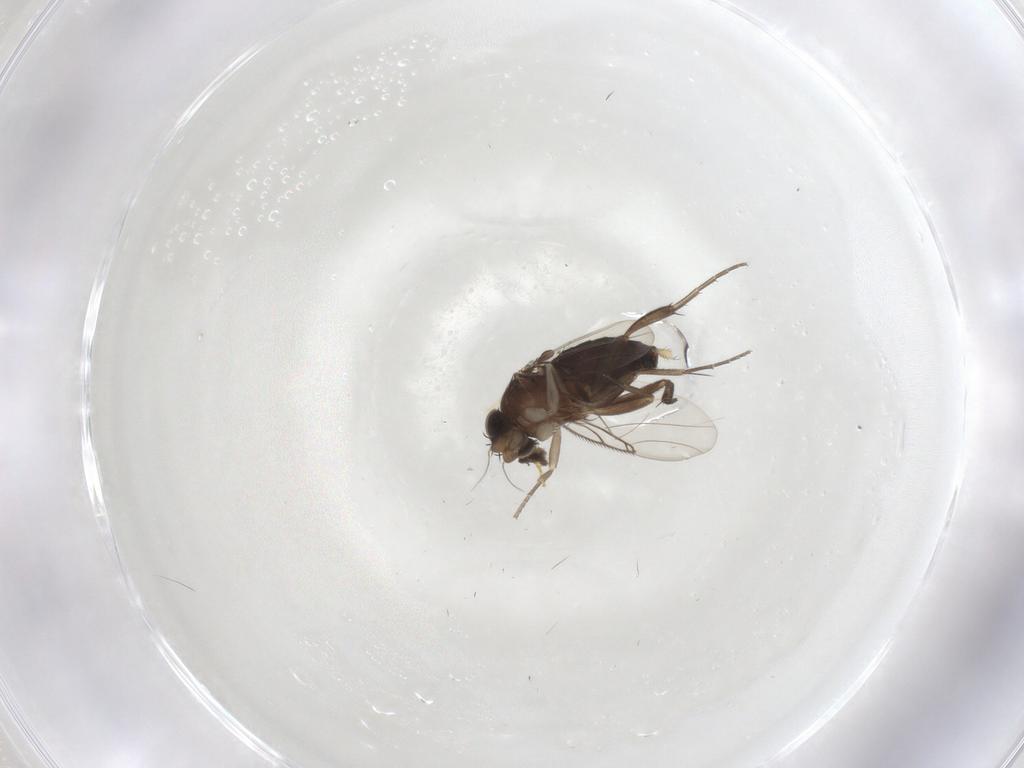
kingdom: Animalia
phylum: Arthropoda
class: Insecta
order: Diptera
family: Phoridae
